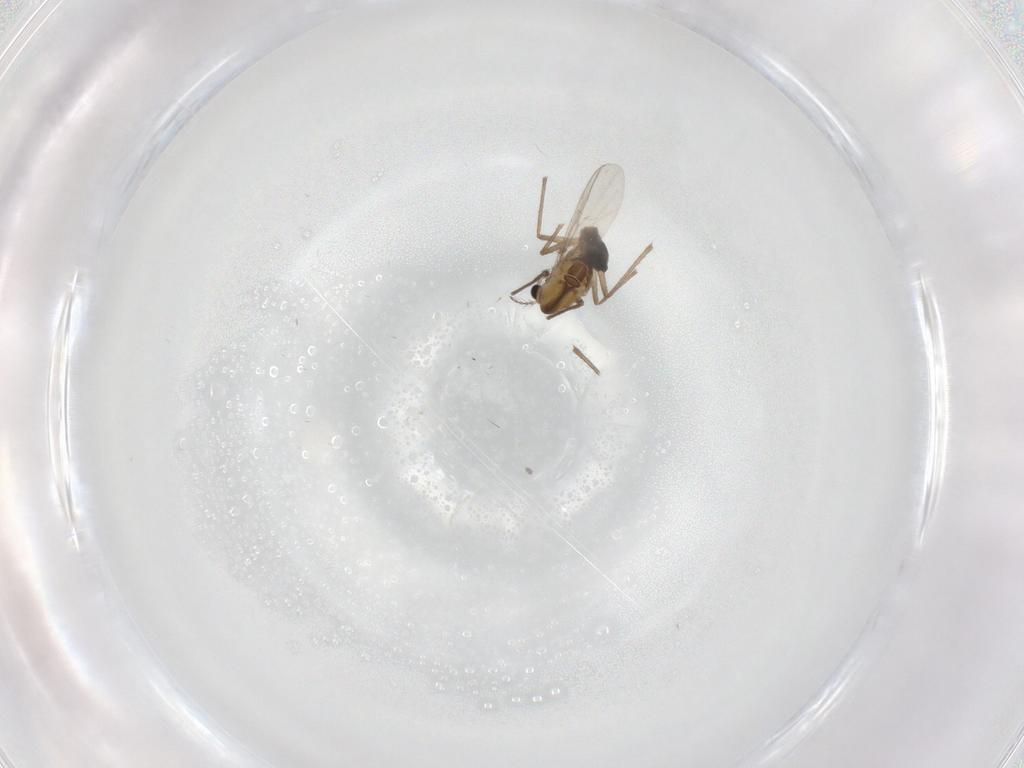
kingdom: Animalia
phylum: Arthropoda
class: Insecta
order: Diptera
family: Chironomidae
